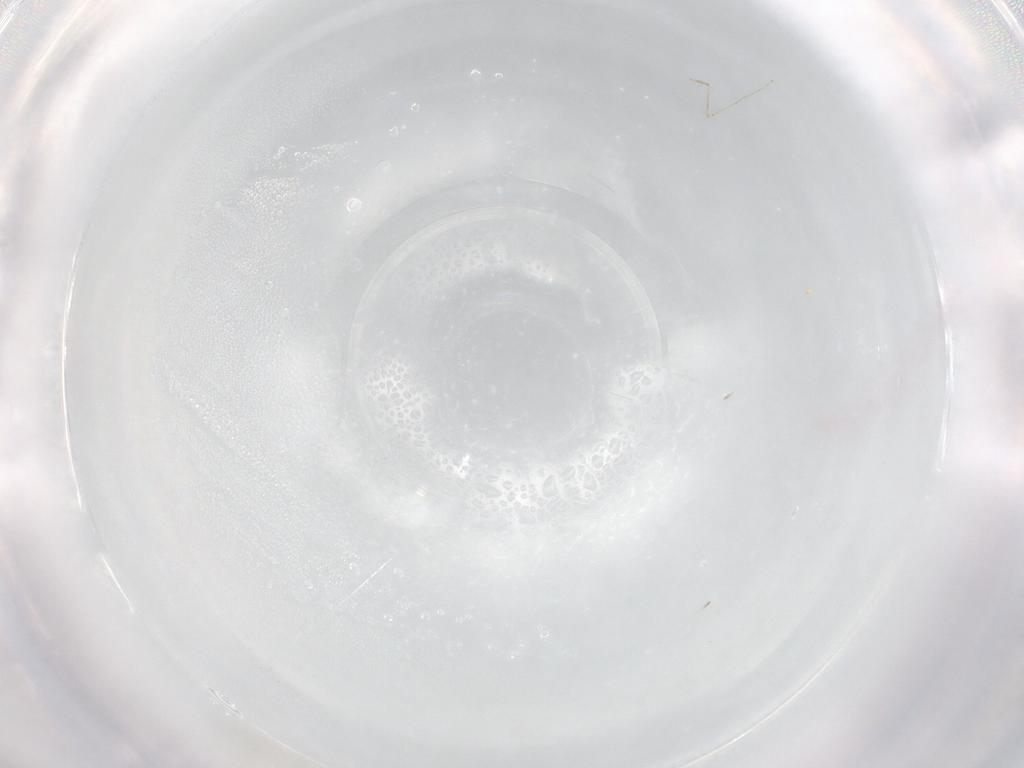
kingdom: Animalia
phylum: Arthropoda
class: Insecta
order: Diptera
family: Cecidomyiidae
